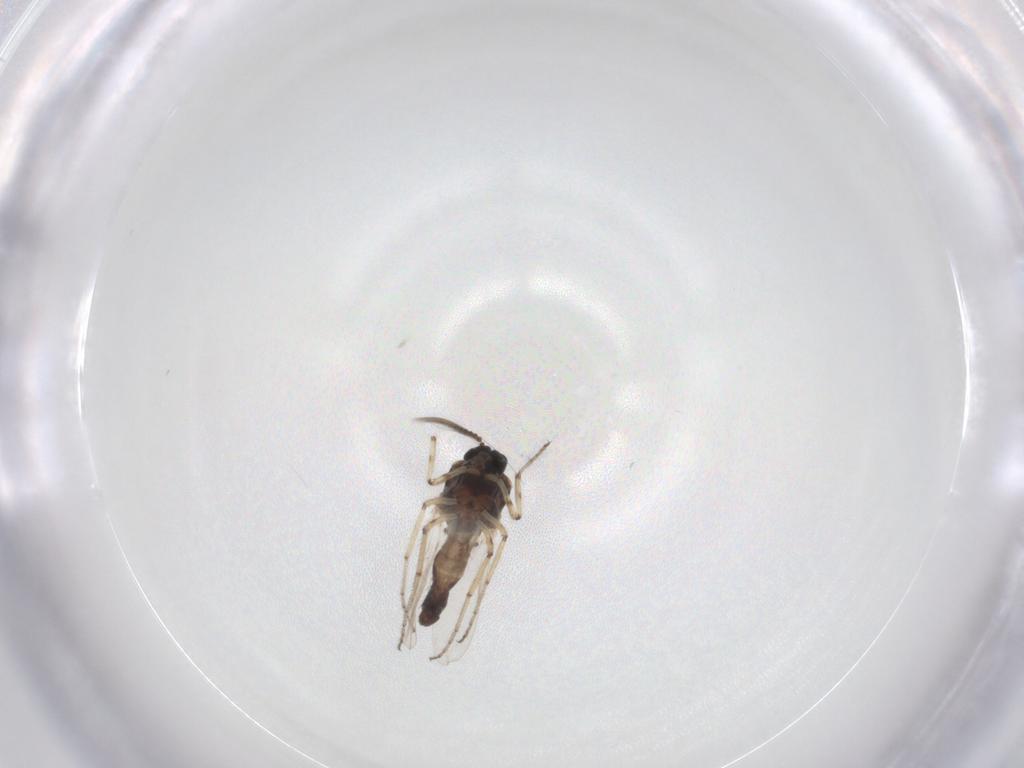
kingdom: Animalia
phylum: Arthropoda
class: Insecta
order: Diptera
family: Ceratopogonidae
